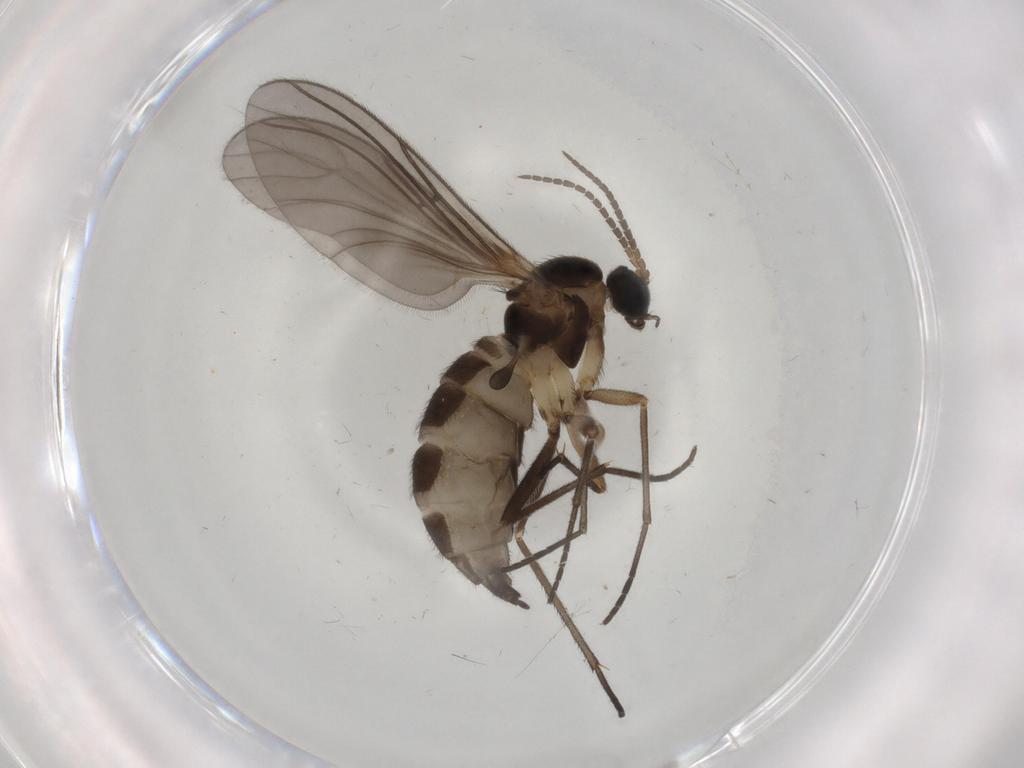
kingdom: Animalia
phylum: Arthropoda
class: Insecta
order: Diptera
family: Sciaridae
